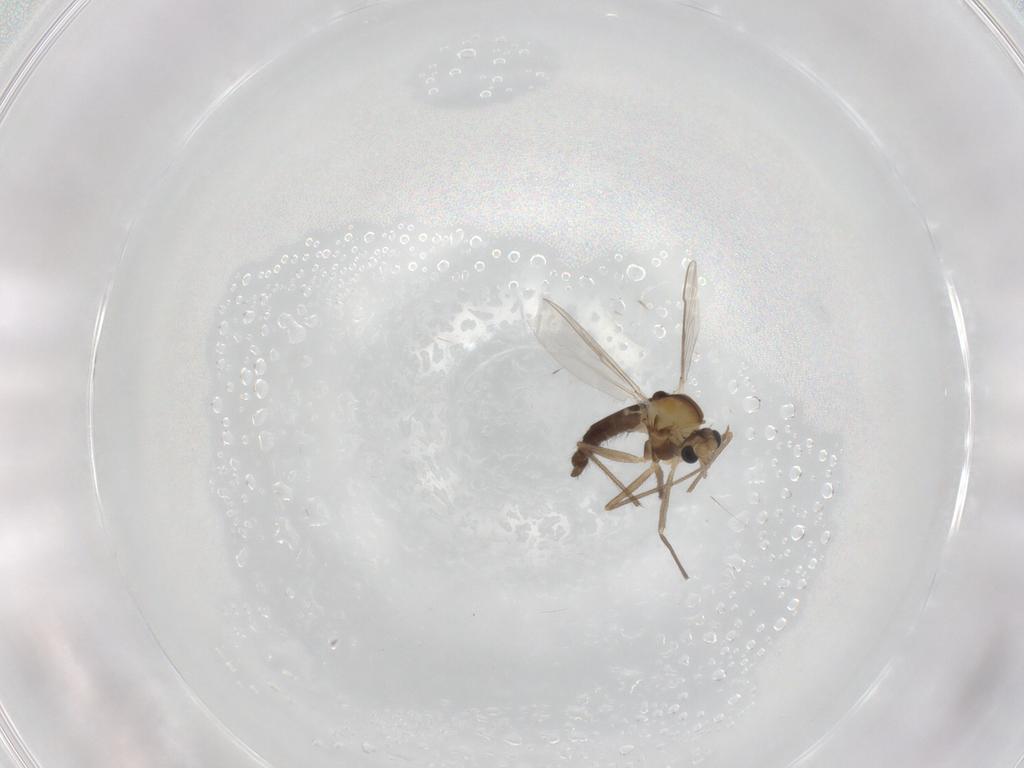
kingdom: Animalia
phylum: Arthropoda
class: Insecta
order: Diptera
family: Chironomidae
